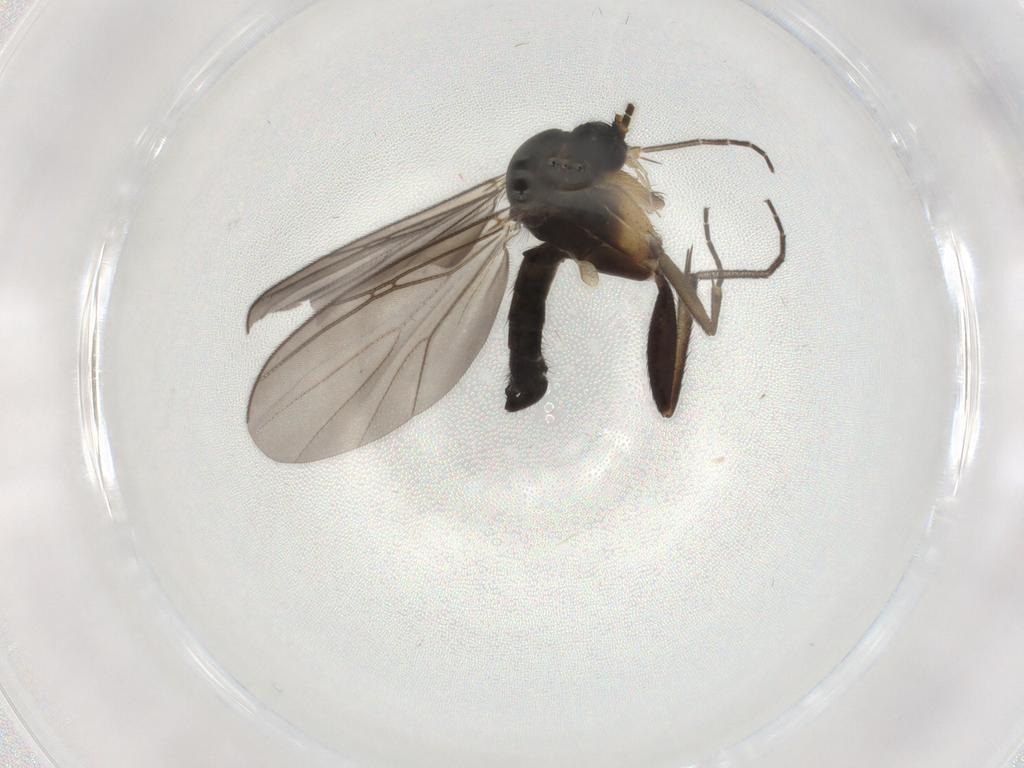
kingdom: Animalia
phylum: Arthropoda
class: Insecta
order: Diptera
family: Mycetophilidae
